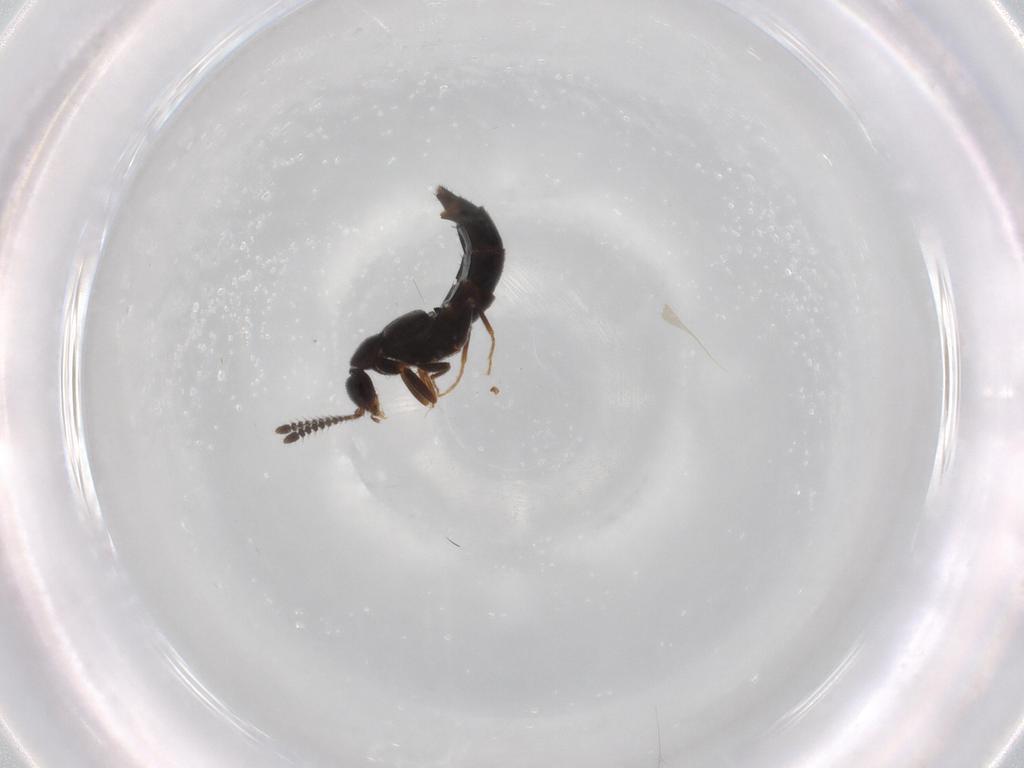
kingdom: Animalia
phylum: Arthropoda
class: Insecta
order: Coleoptera
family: Staphylinidae
